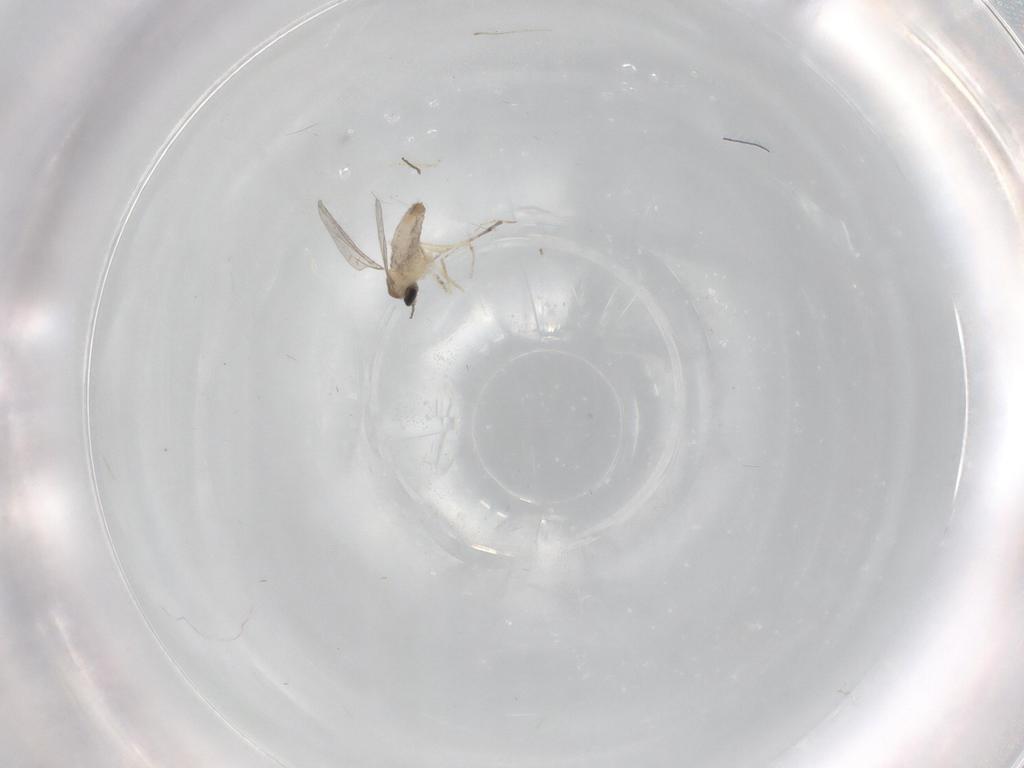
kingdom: Animalia
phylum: Arthropoda
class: Insecta
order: Diptera
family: Cecidomyiidae
